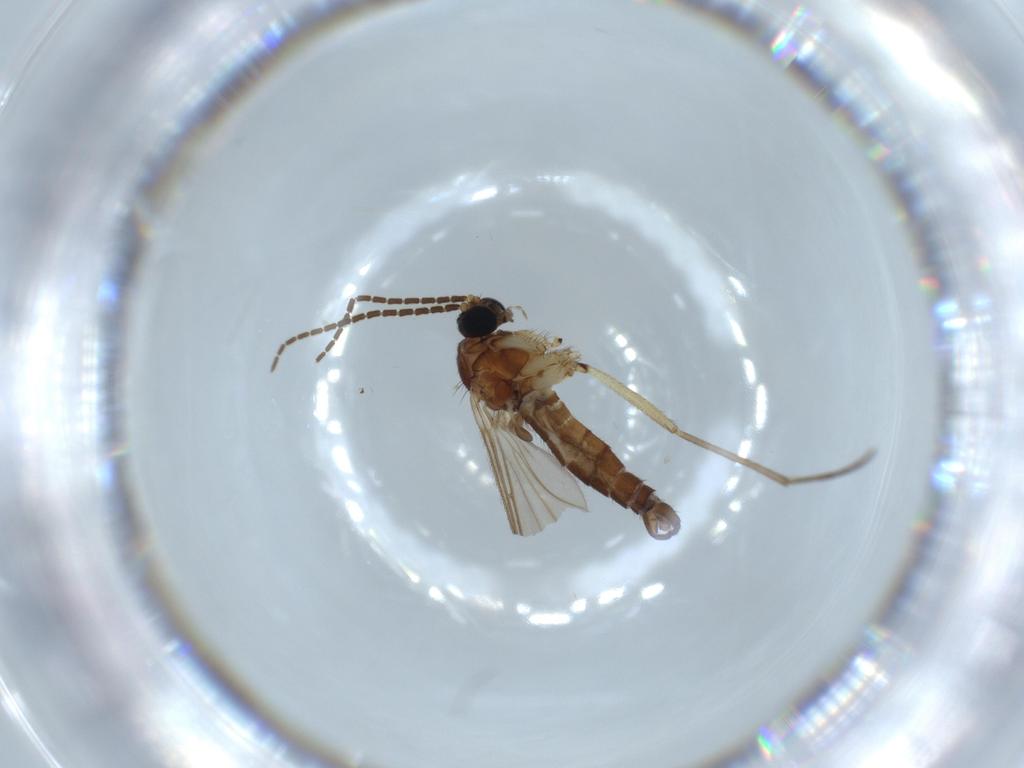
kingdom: Animalia
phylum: Arthropoda
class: Insecta
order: Diptera
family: Sciaridae
